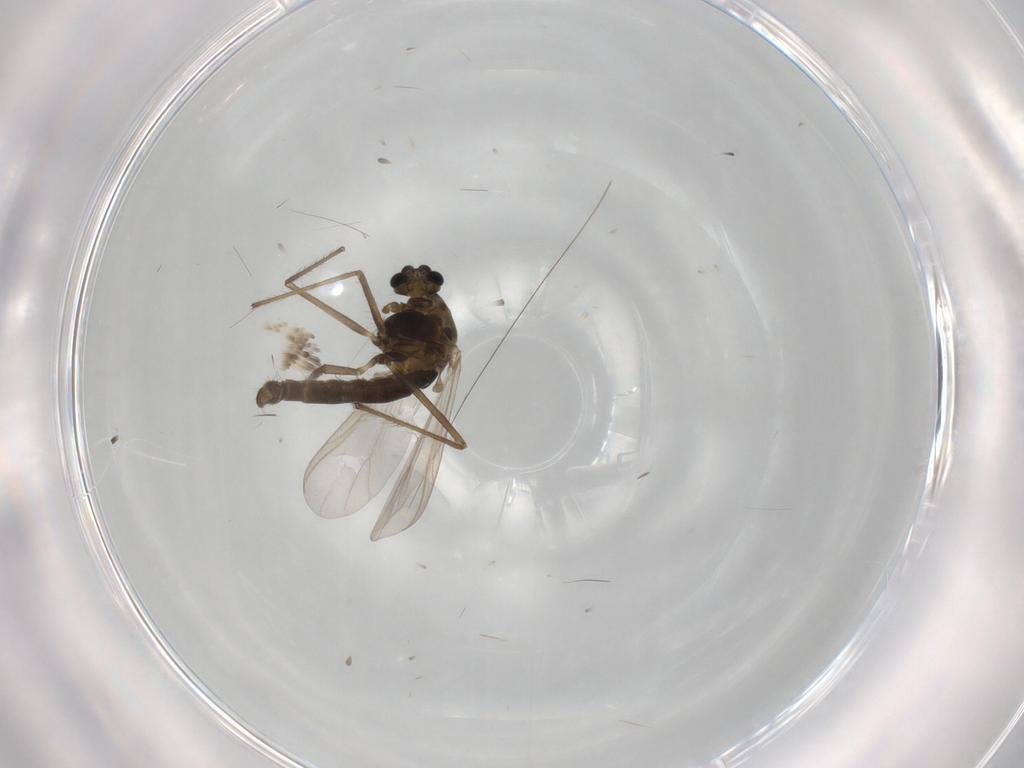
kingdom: Animalia
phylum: Arthropoda
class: Insecta
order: Diptera
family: Chironomidae
